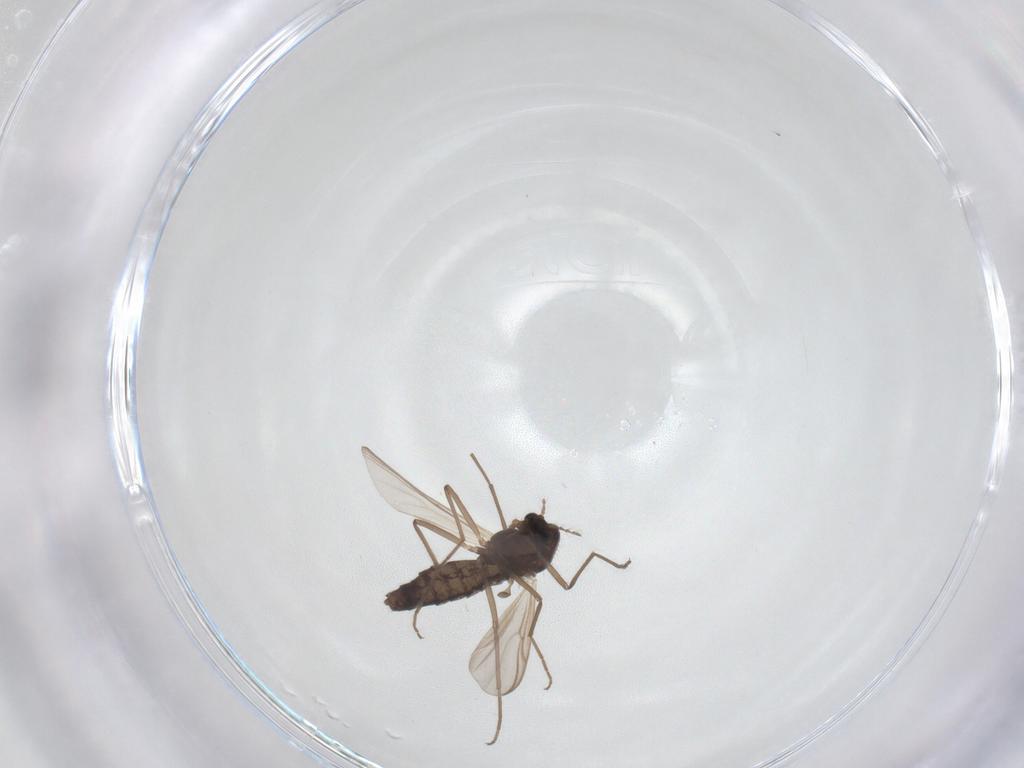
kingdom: Animalia
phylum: Arthropoda
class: Insecta
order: Diptera
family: Chironomidae
